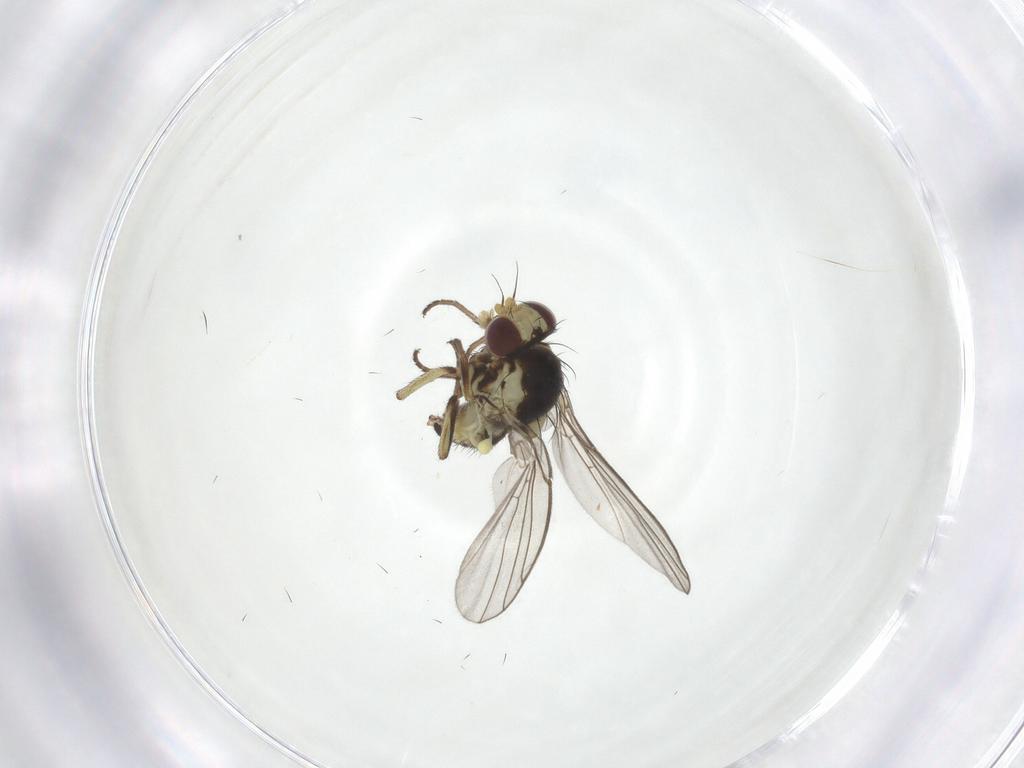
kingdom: Animalia
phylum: Arthropoda
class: Insecta
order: Diptera
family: Agromyzidae
